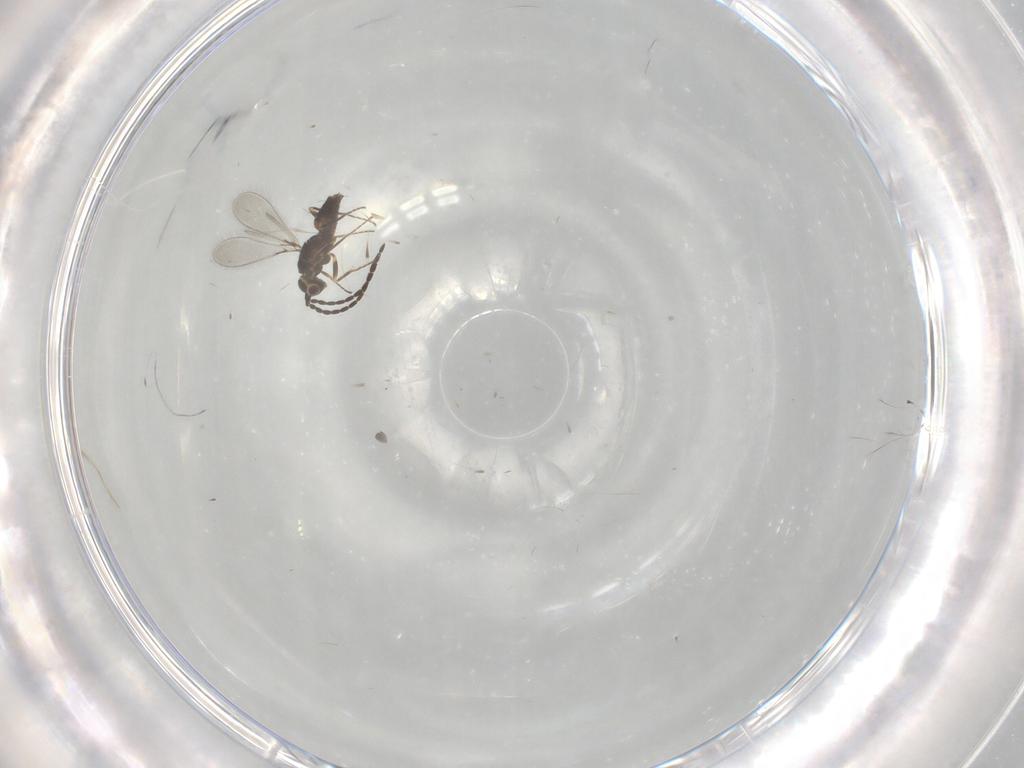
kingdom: Animalia
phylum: Arthropoda
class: Insecta
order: Hymenoptera
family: Mymaridae
